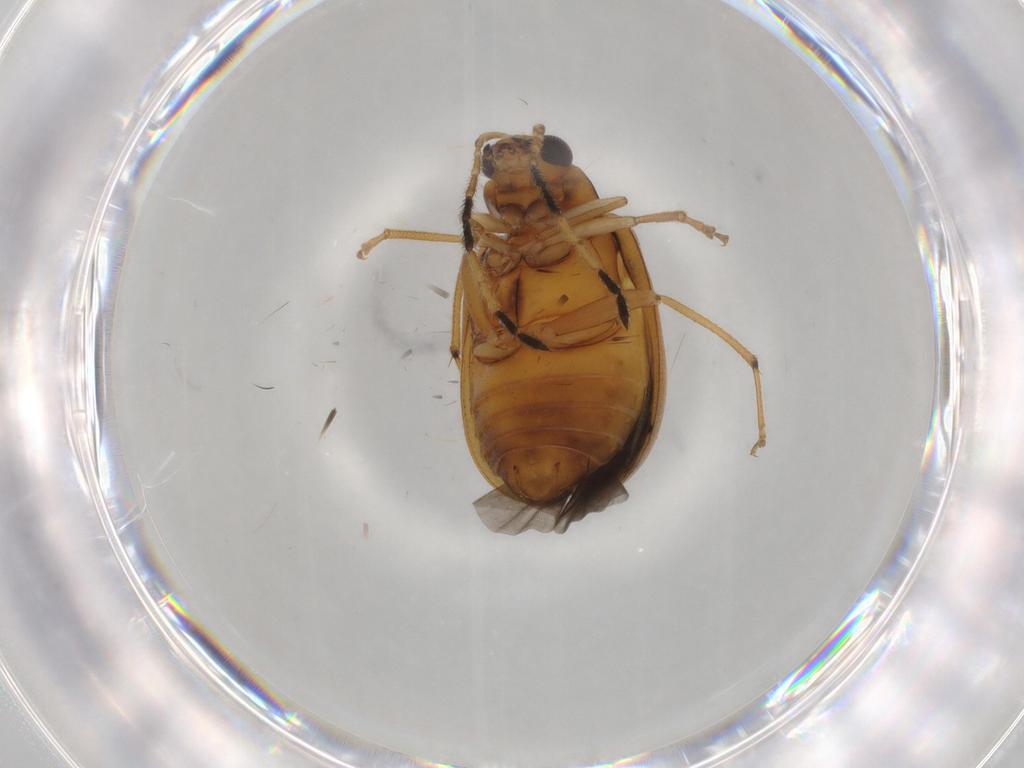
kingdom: Animalia
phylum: Arthropoda
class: Insecta
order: Coleoptera
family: Chrysomelidae
